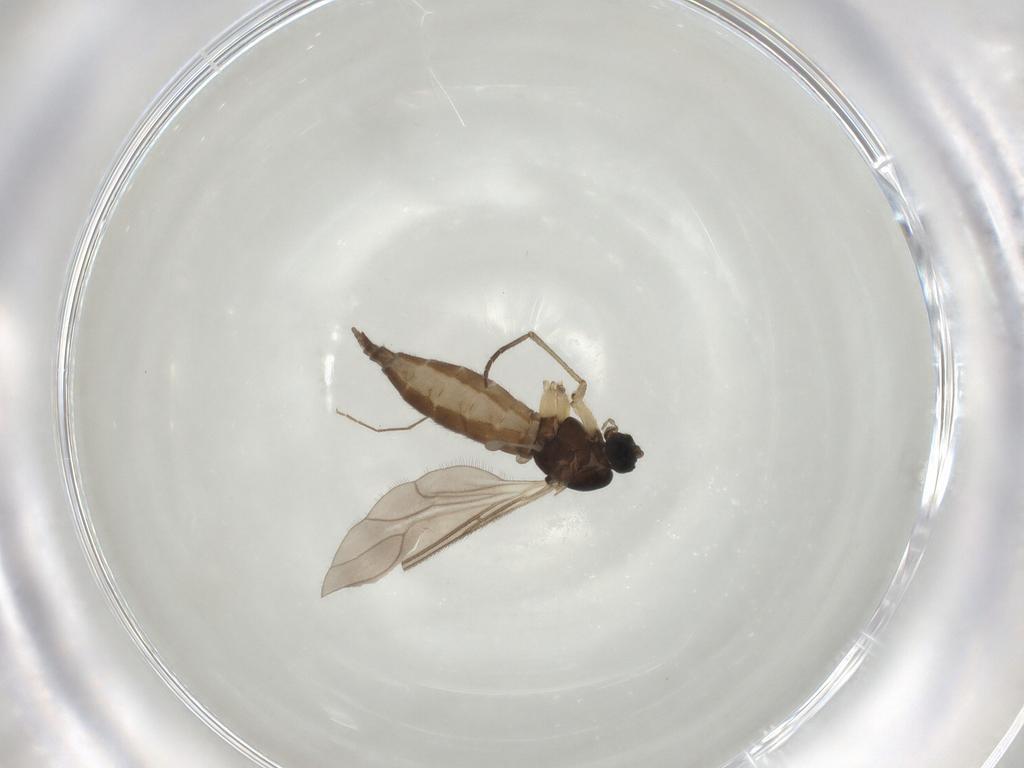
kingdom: Animalia
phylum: Arthropoda
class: Insecta
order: Diptera
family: Sciaridae
